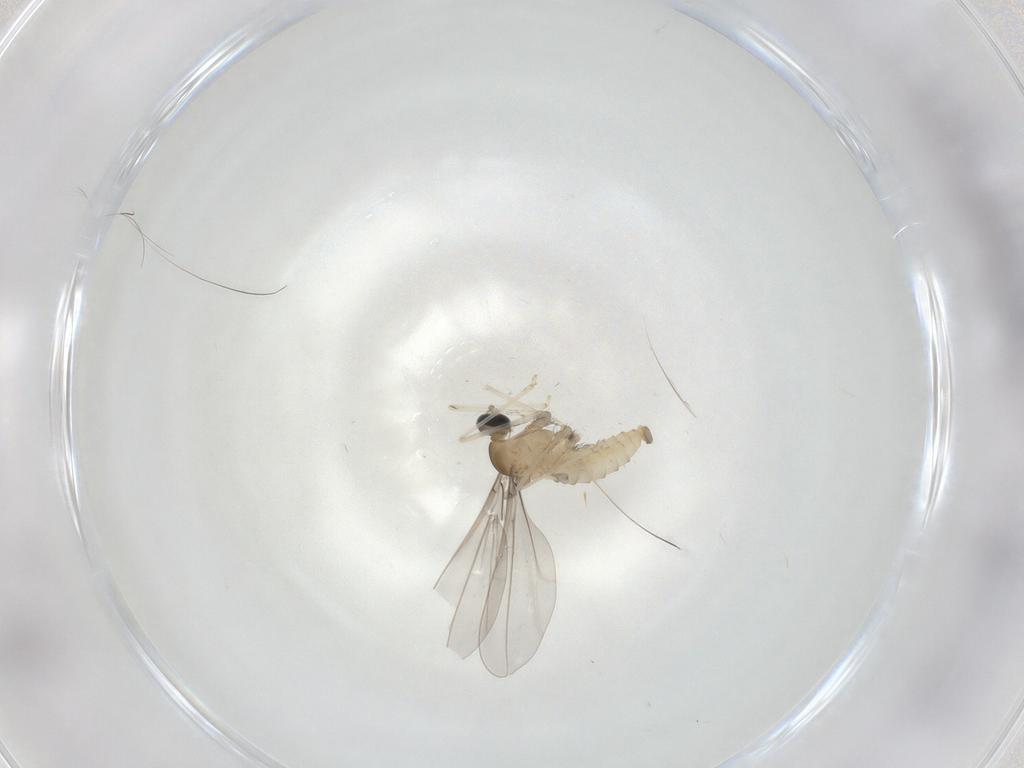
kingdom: Animalia
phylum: Arthropoda
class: Insecta
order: Diptera
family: Cecidomyiidae
